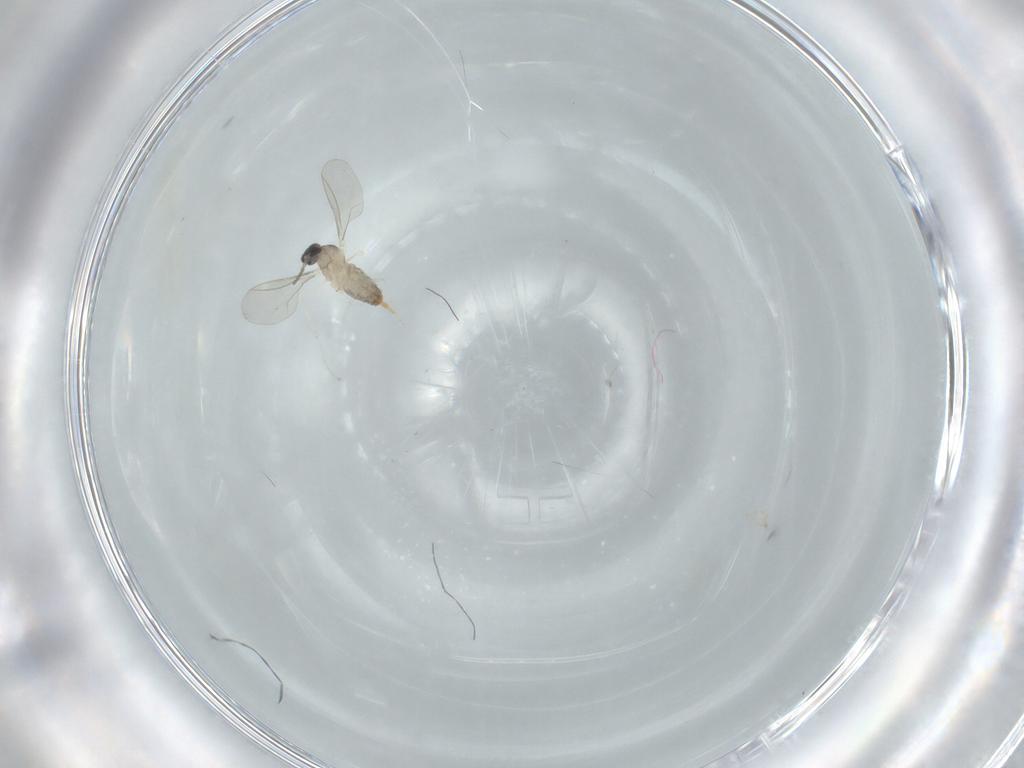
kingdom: Animalia
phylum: Arthropoda
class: Insecta
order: Diptera
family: Cecidomyiidae
